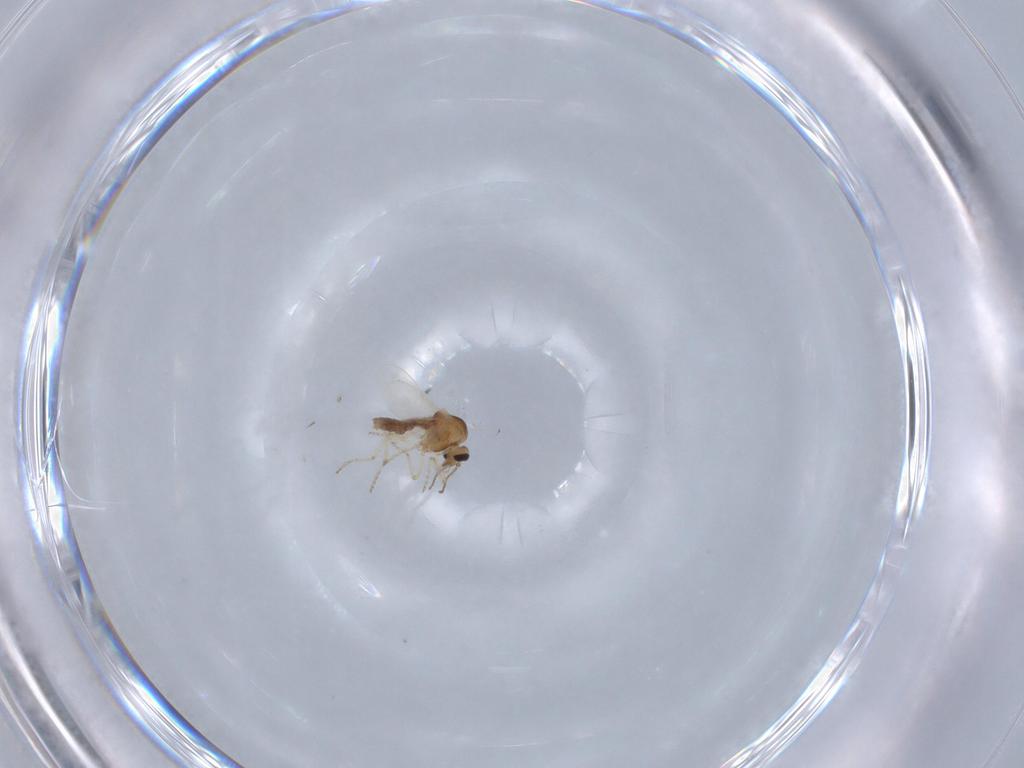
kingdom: Animalia
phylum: Arthropoda
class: Insecta
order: Diptera
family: Ceratopogonidae
